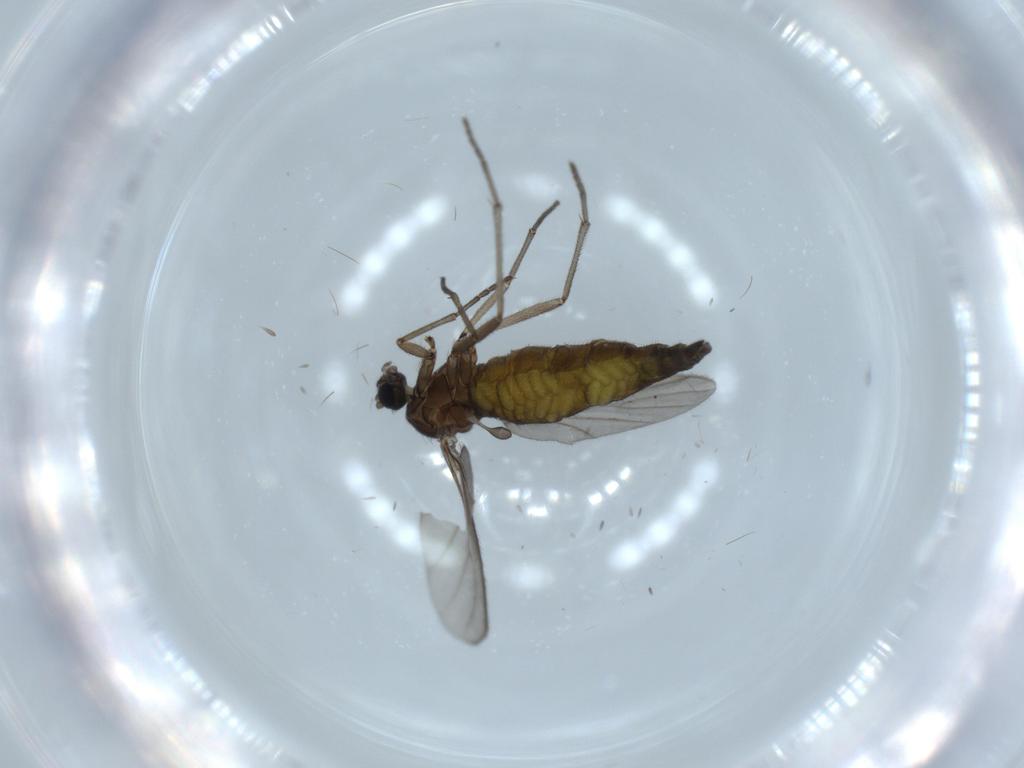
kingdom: Animalia
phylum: Arthropoda
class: Insecta
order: Diptera
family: Sciaridae
